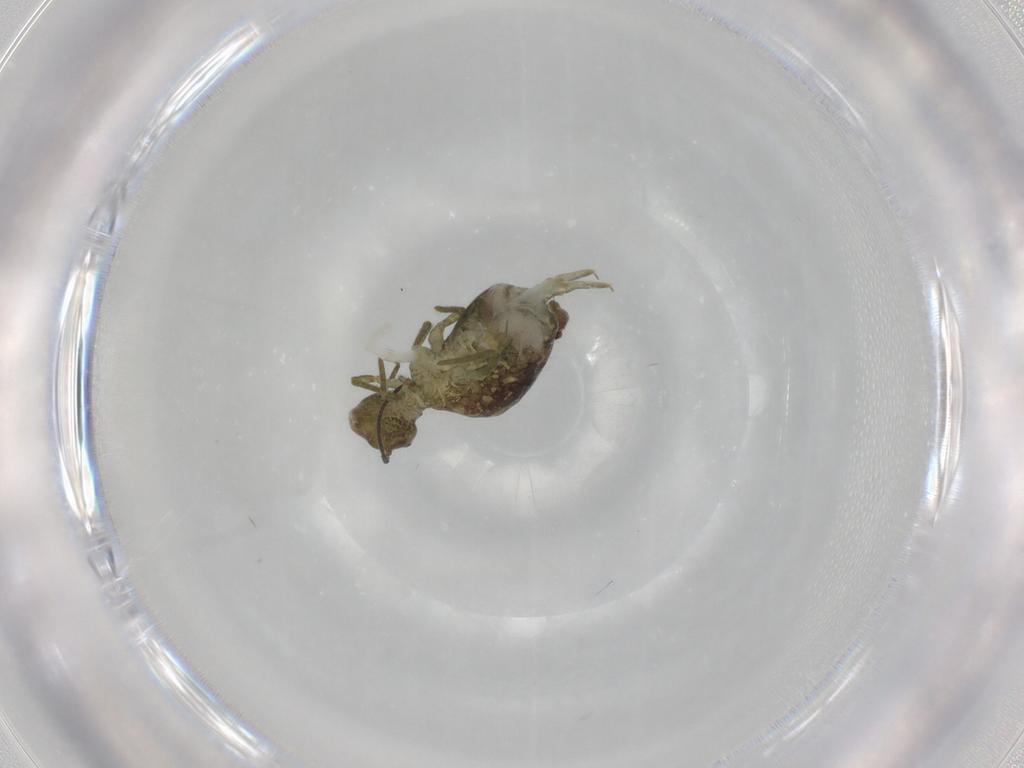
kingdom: Animalia
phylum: Arthropoda
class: Collembola
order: Symphypleona
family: Sminthuridae
